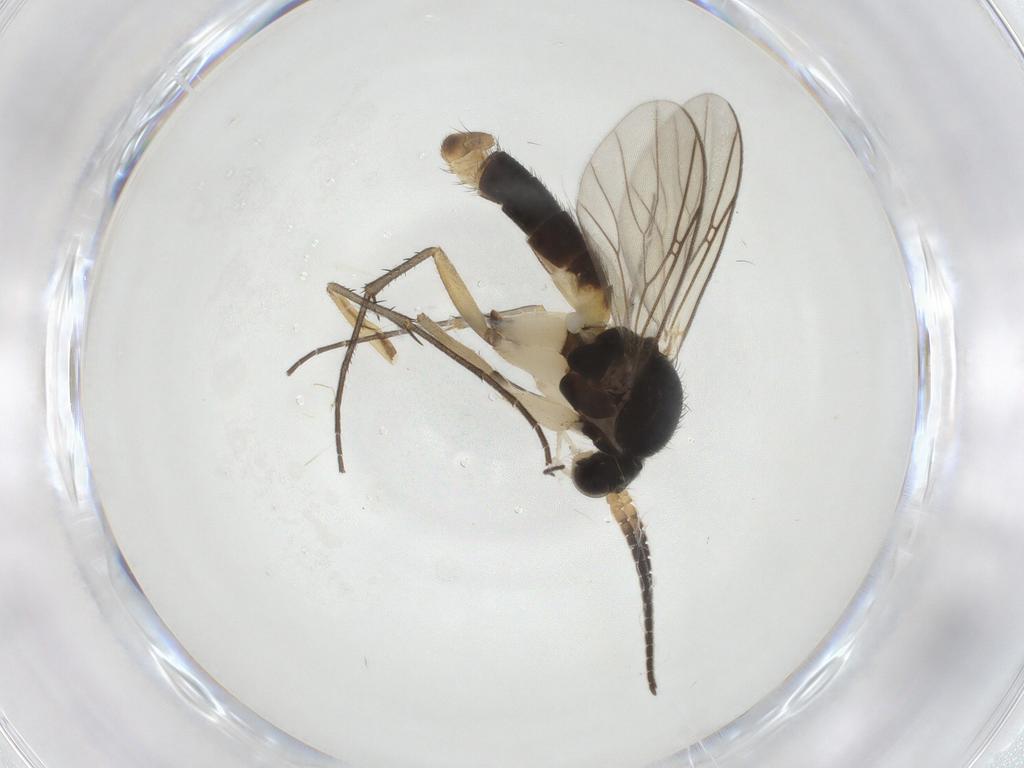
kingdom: Animalia
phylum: Arthropoda
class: Insecta
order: Diptera
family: Mycetophilidae
